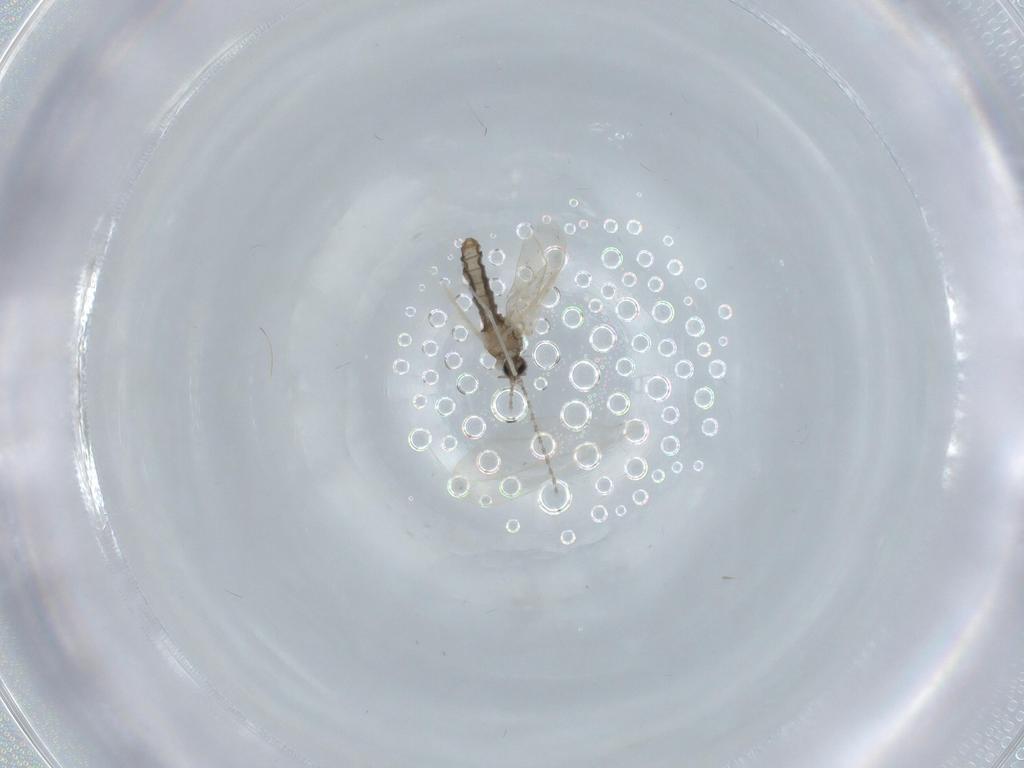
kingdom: Animalia
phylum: Arthropoda
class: Insecta
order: Diptera
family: Cecidomyiidae
